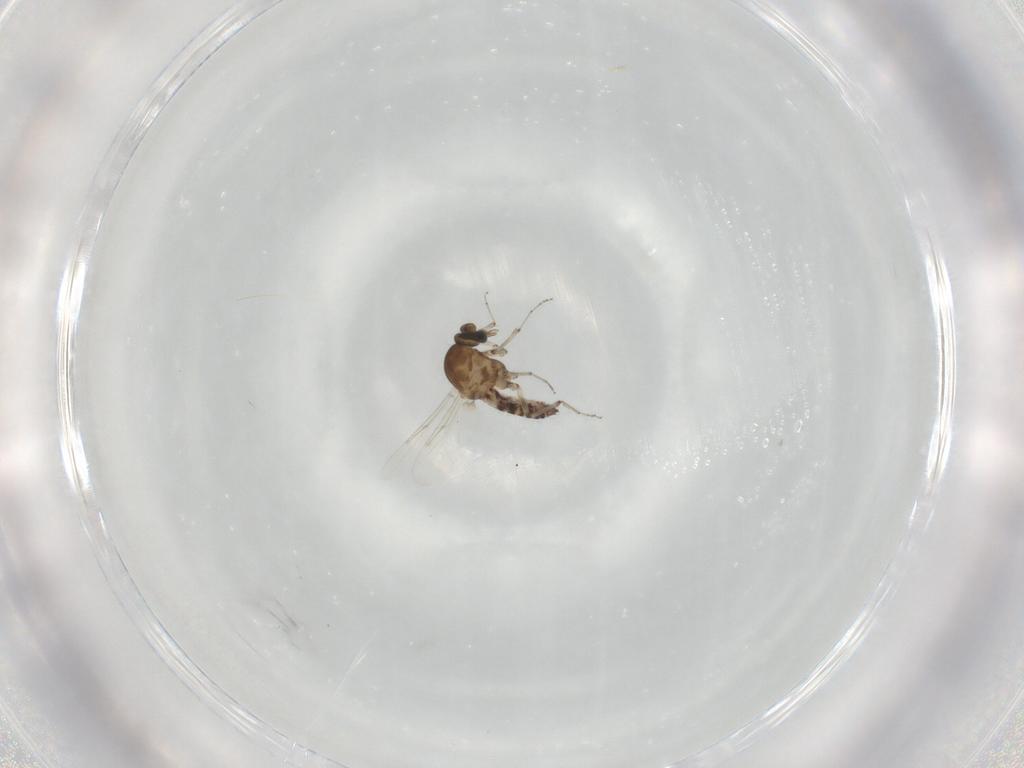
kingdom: Animalia
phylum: Arthropoda
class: Insecta
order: Diptera
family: Ceratopogonidae
